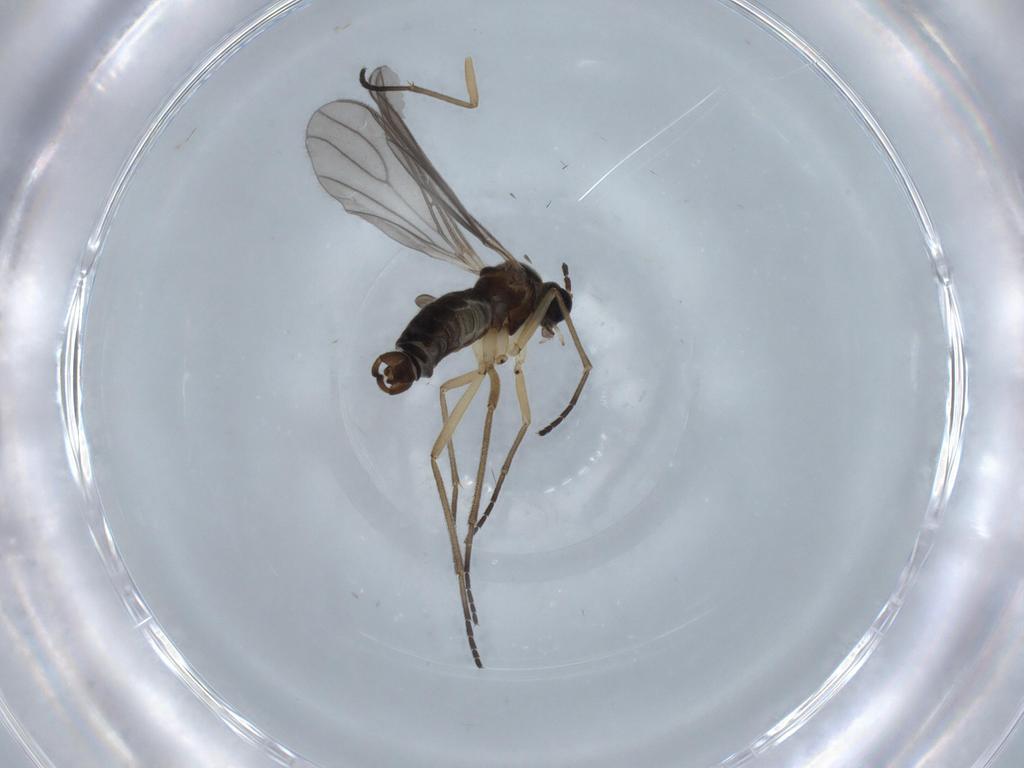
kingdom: Animalia
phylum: Arthropoda
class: Insecta
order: Diptera
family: Sciaridae
